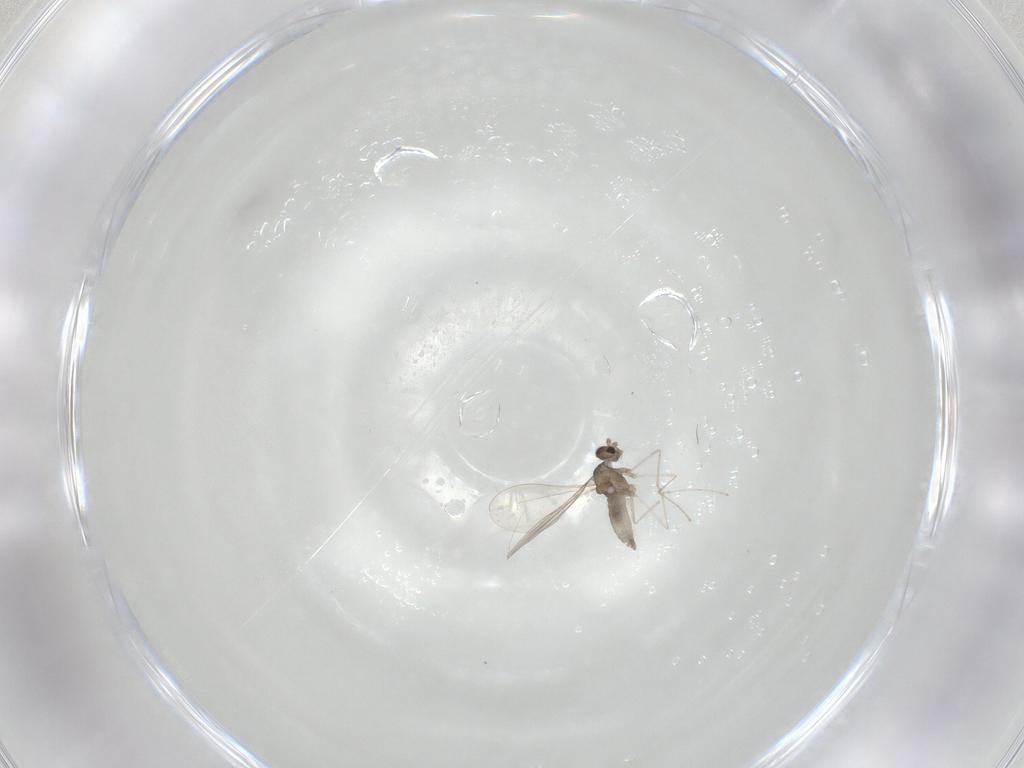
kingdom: Animalia
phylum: Arthropoda
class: Insecta
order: Diptera
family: Cecidomyiidae
